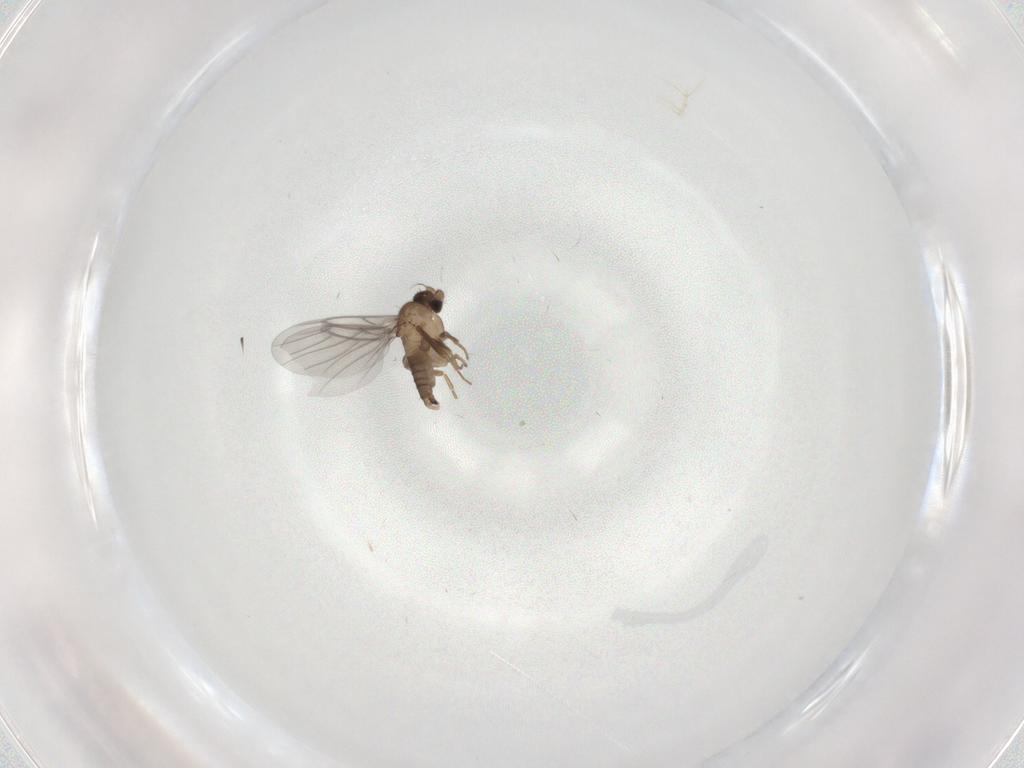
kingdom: Animalia
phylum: Arthropoda
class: Insecta
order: Diptera
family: Chironomidae
